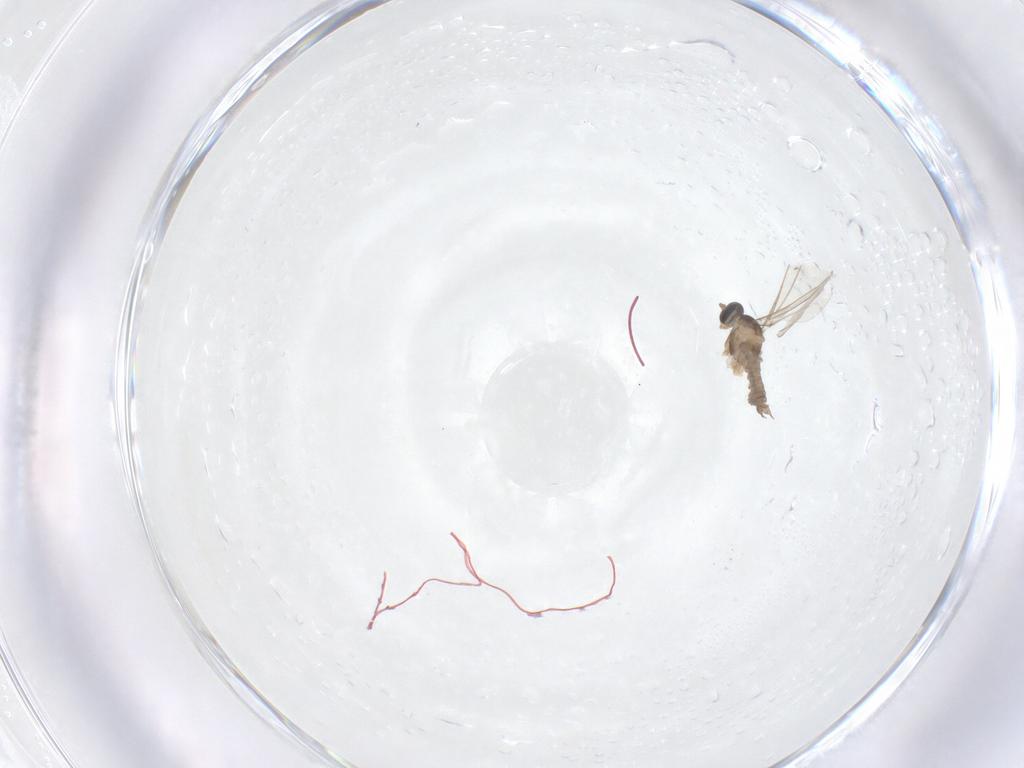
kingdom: Animalia
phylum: Arthropoda
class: Insecta
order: Diptera
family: Cecidomyiidae
